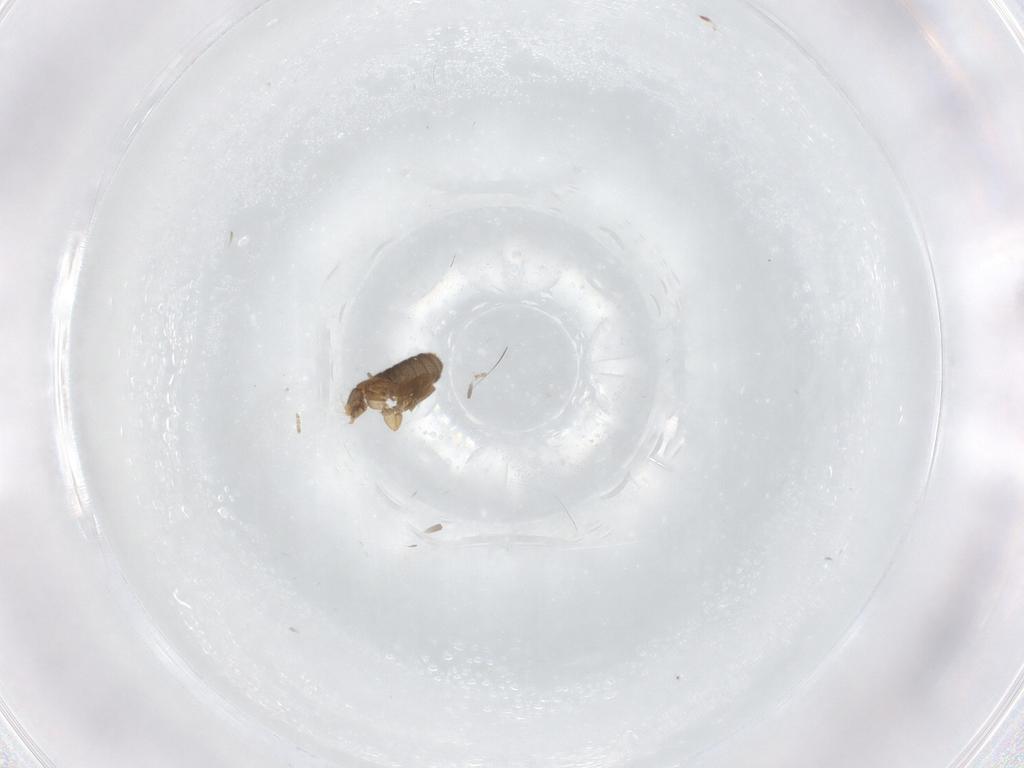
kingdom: Animalia
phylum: Arthropoda
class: Insecta
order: Diptera
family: Phoridae
